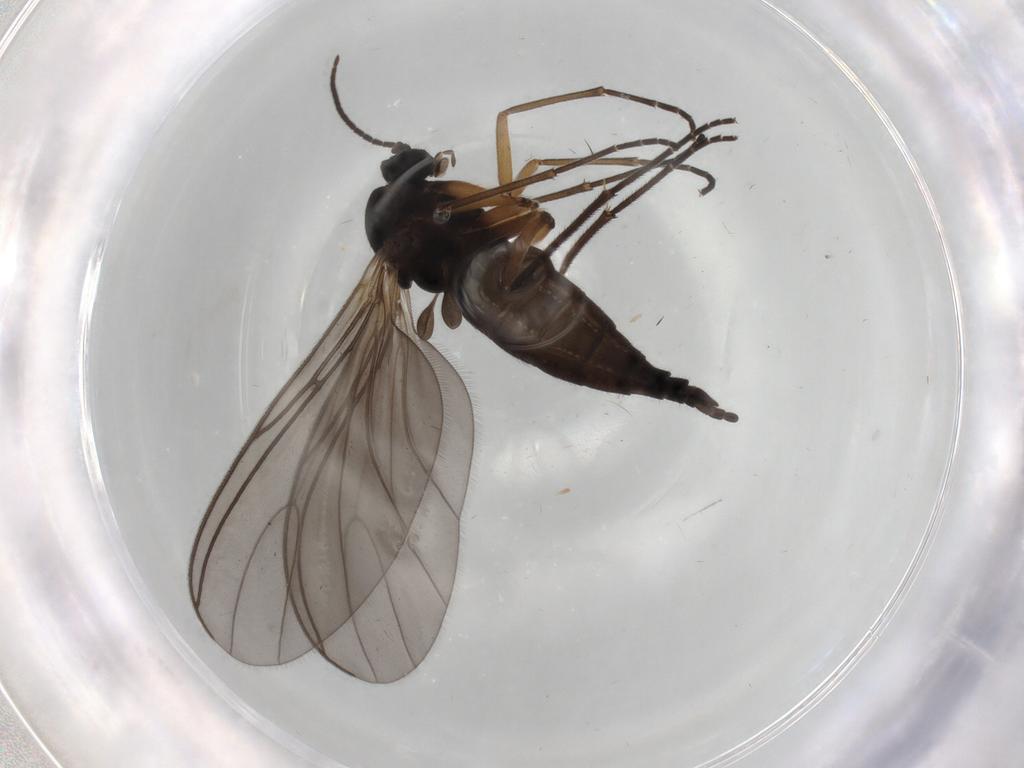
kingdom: Animalia
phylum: Arthropoda
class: Insecta
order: Diptera
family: Sciaridae
